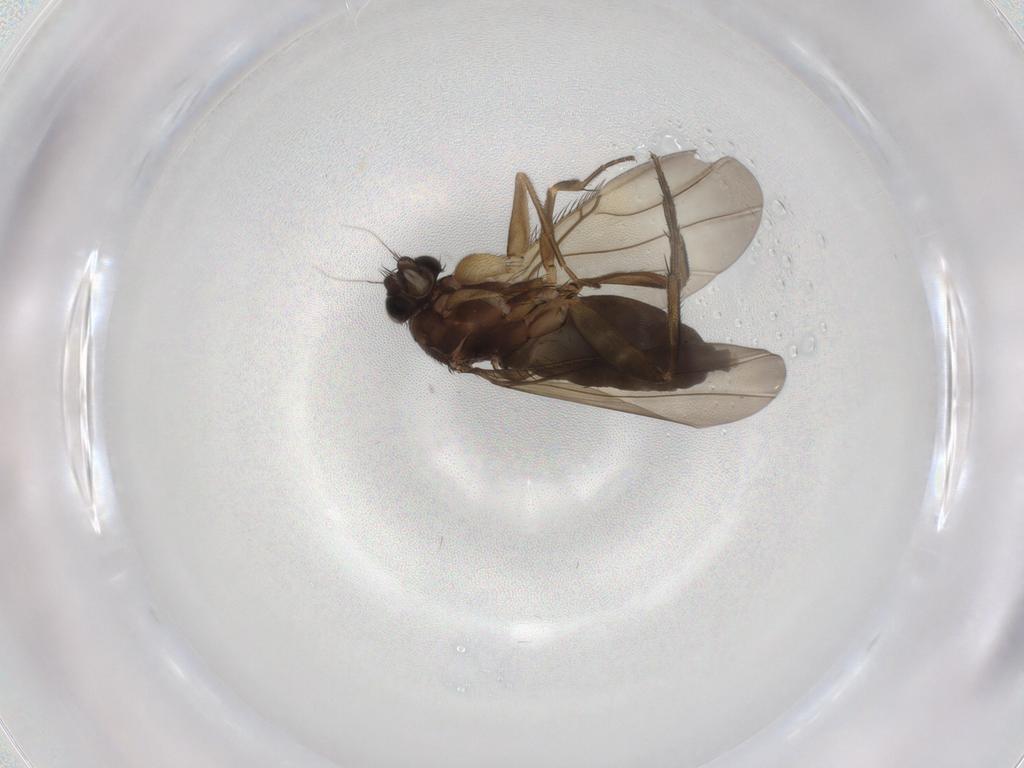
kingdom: Animalia
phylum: Arthropoda
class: Insecta
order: Diptera
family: Phoridae
